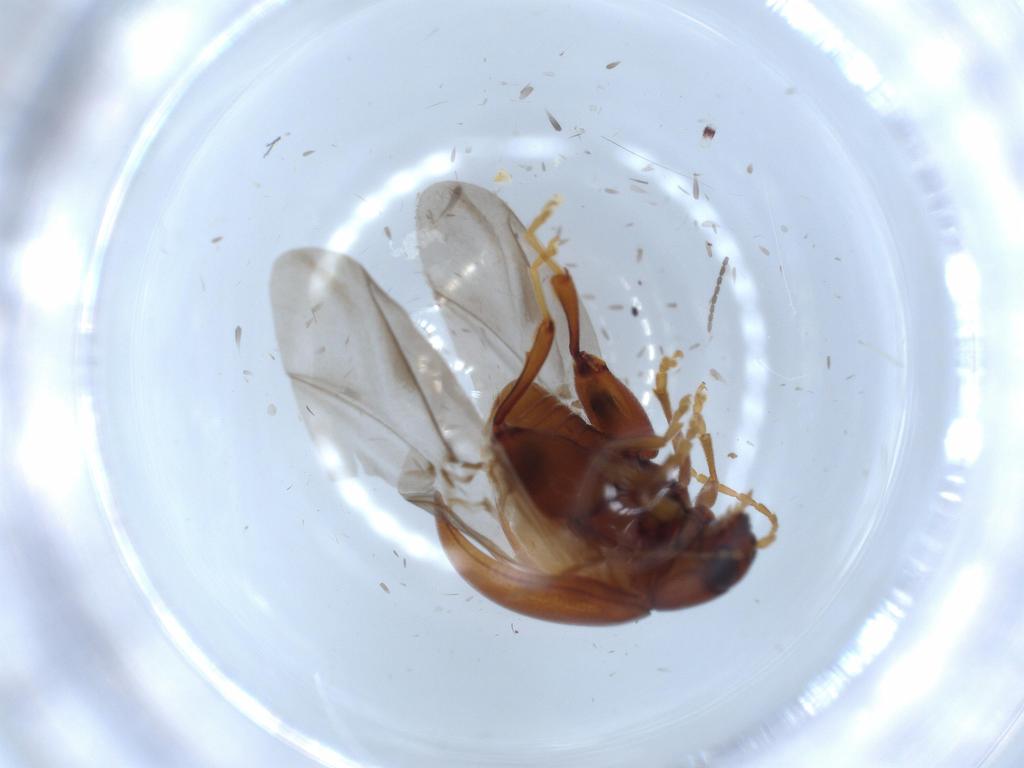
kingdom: Animalia
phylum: Arthropoda
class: Insecta
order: Coleoptera
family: Chrysomelidae
